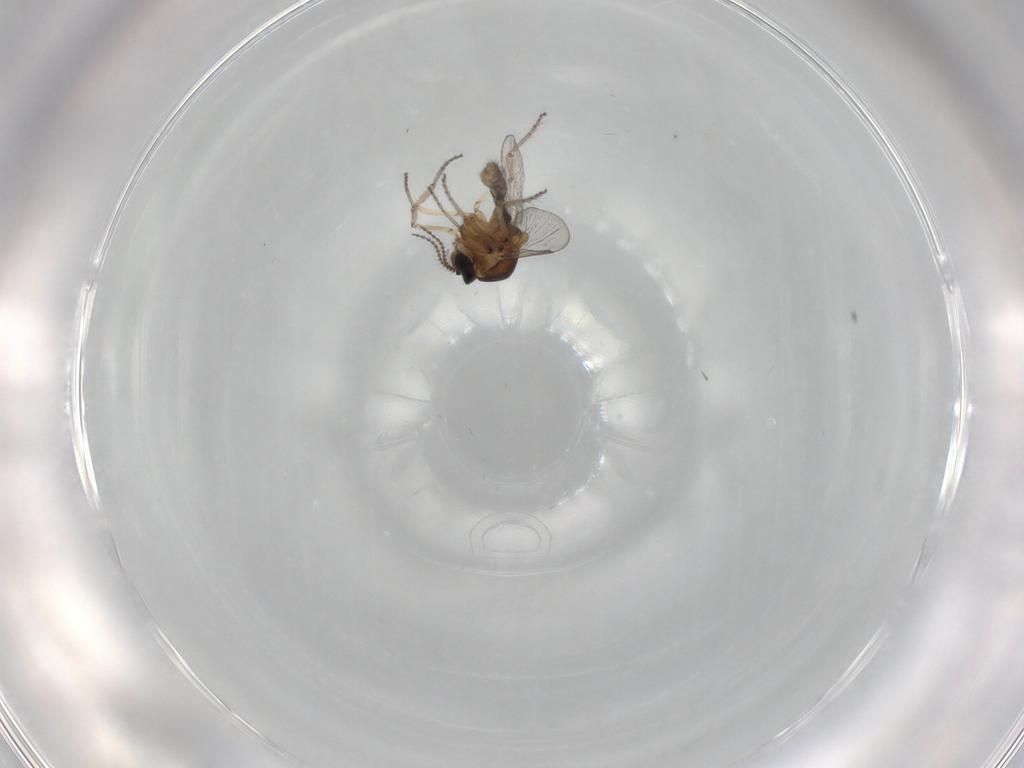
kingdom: Animalia
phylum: Arthropoda
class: Insecta
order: Diptera
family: Ceratopogonidae
